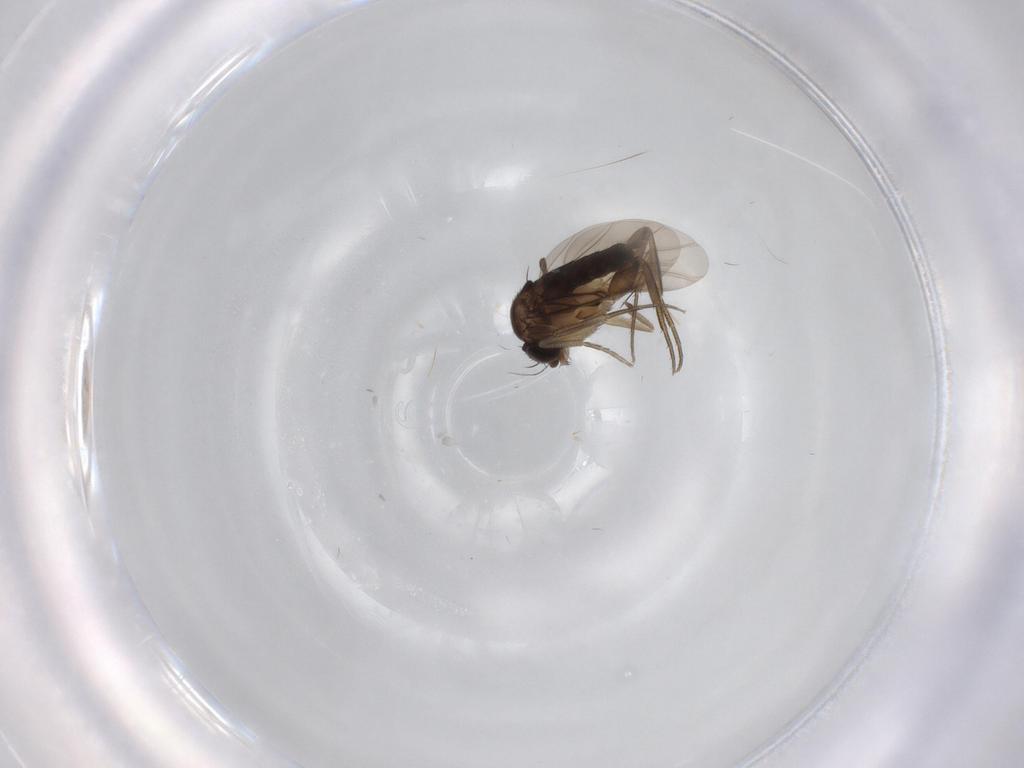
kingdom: Animalia
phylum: Arthropoda
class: Insecta
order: Diptera
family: Phoridae
